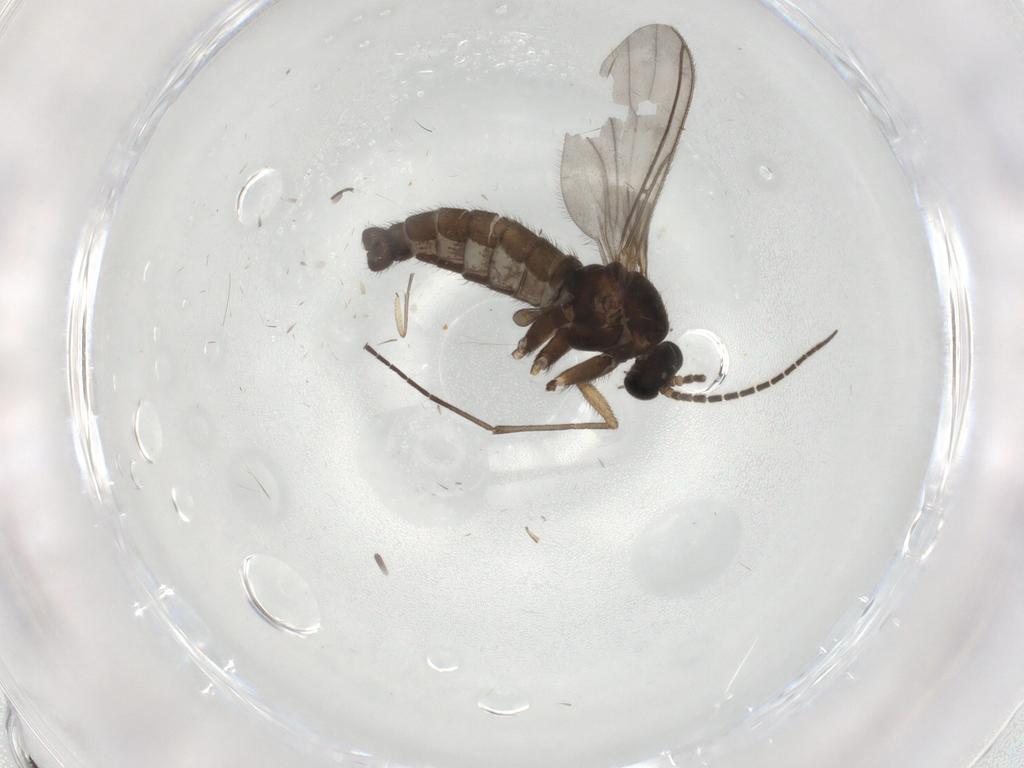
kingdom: Animalia
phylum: Arthropoda
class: Insecta
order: Diptera
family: Sciaridae
